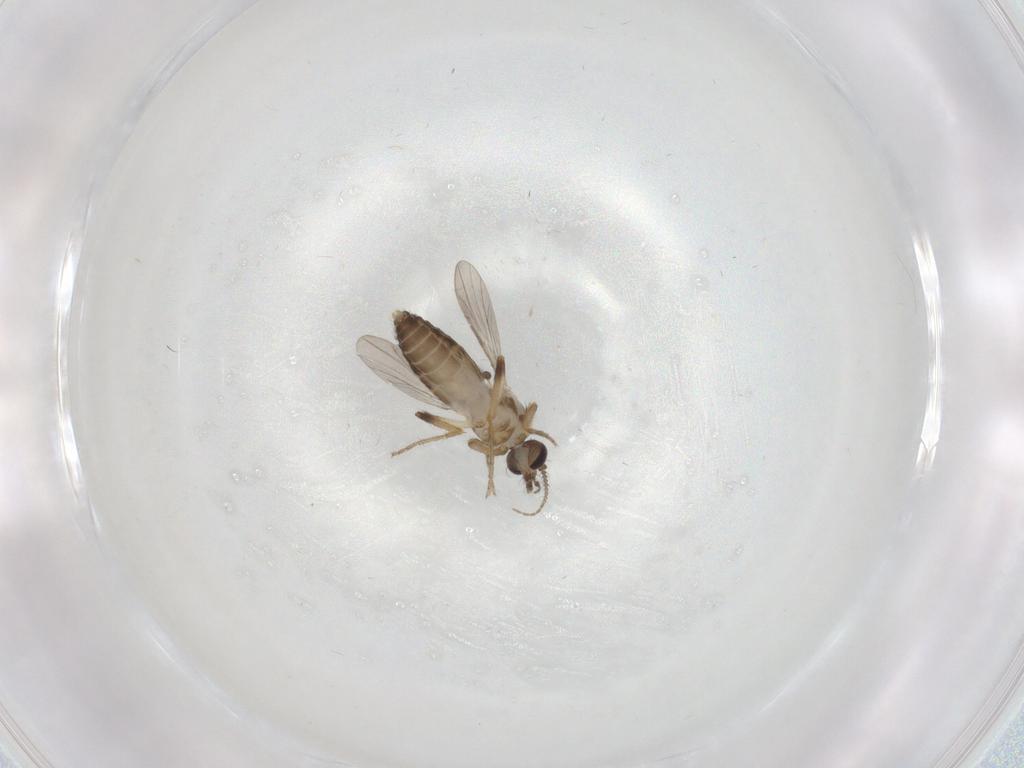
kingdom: Animalia
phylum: Arthropoda
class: Insecta
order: Diptera
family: Ceratopogonidae
